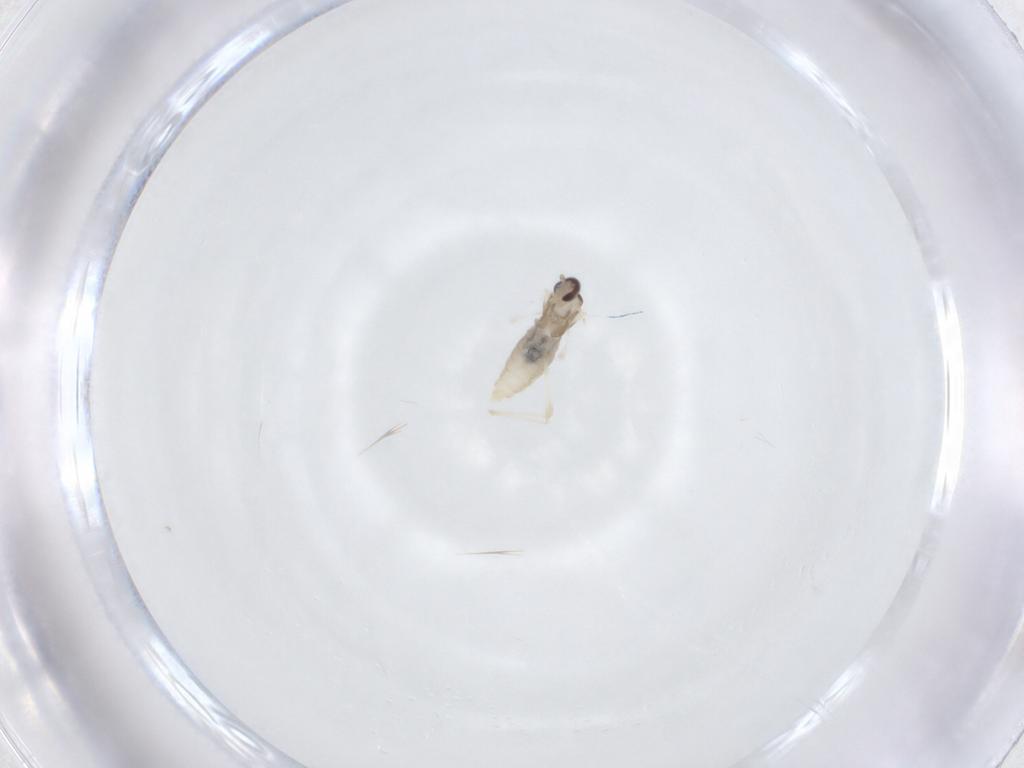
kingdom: Animalia
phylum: Arthropoda
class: Insecta
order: Diptera
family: Cecidomyiidae
